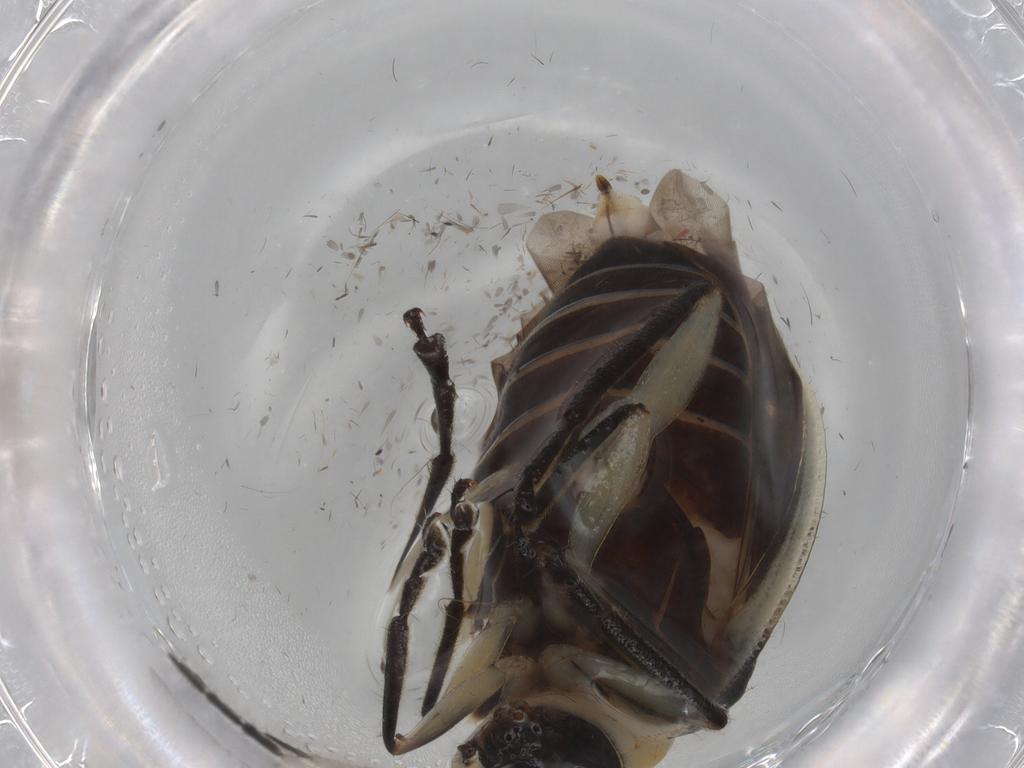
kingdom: Animalia
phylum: Arthropoda
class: Insecta
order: Coleoptera
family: Chrysomelidae
